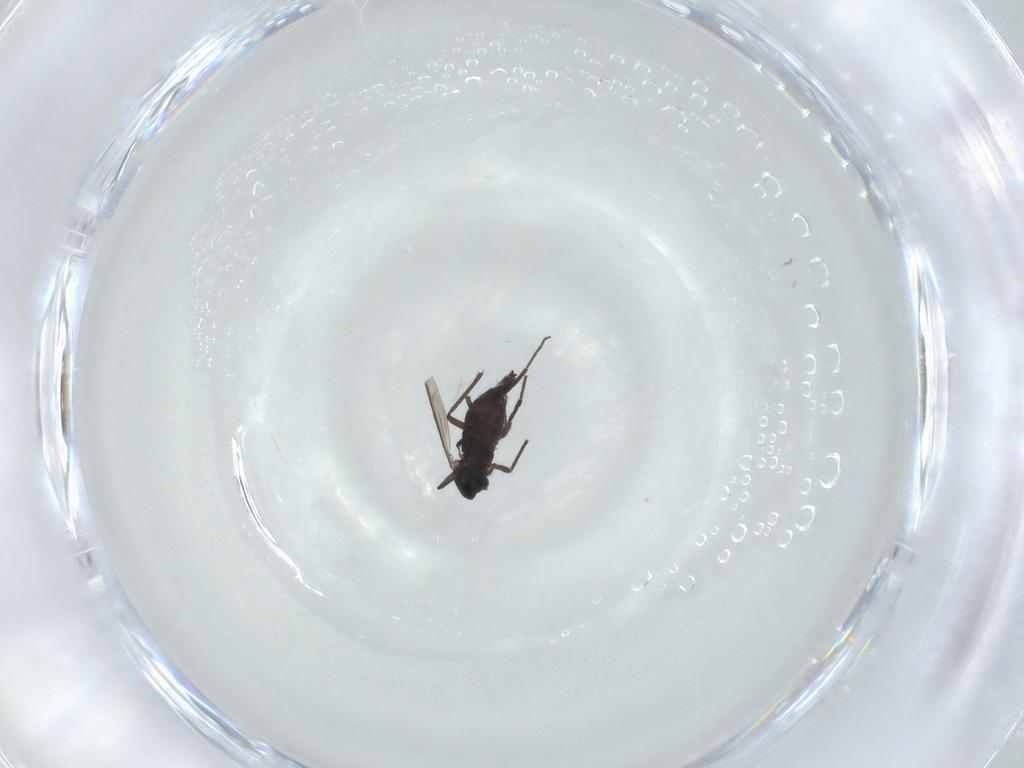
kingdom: Animalia
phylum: Arthropoda
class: Insecta
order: Diptera
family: Chironomidae
